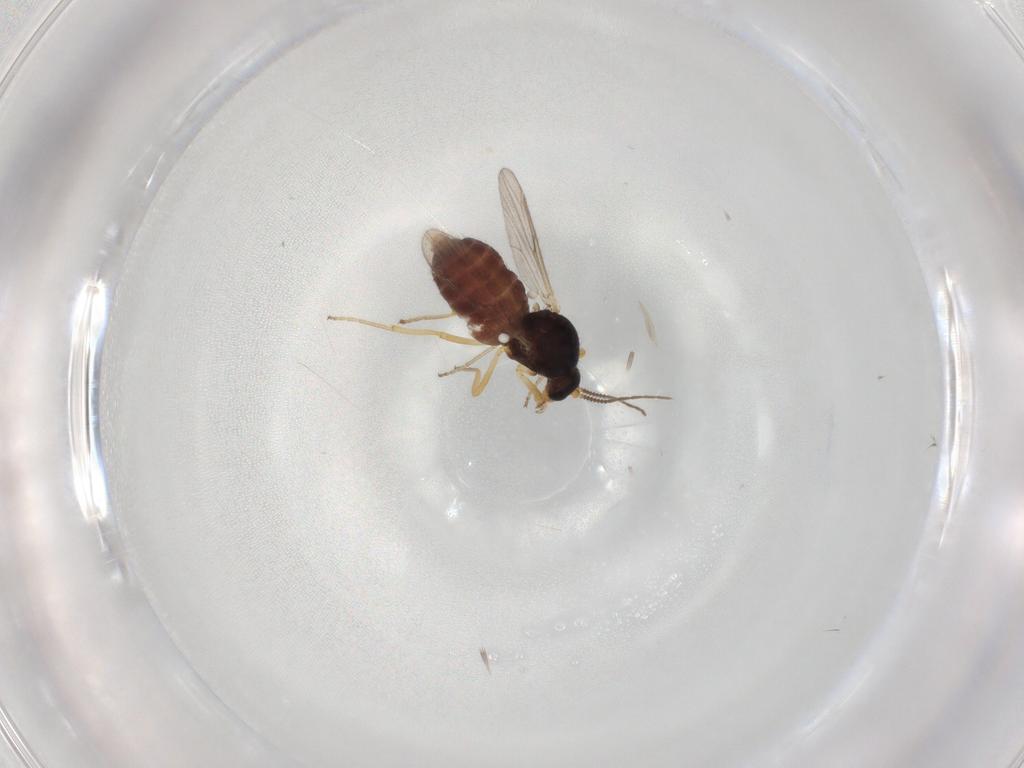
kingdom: Animalia
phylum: Arthropoda
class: Insecta
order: Diptera
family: Ceratopogonidae
